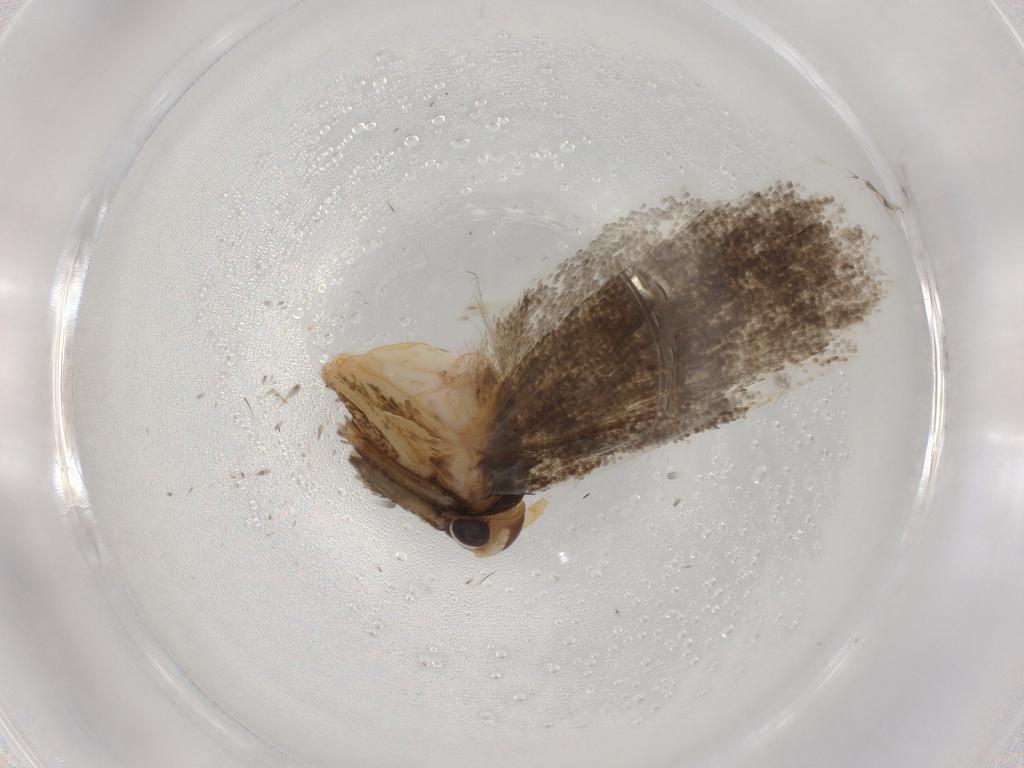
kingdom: Animalia
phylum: Arthropoda
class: Insecta
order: Lepidoptera
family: Lecithoceridae
